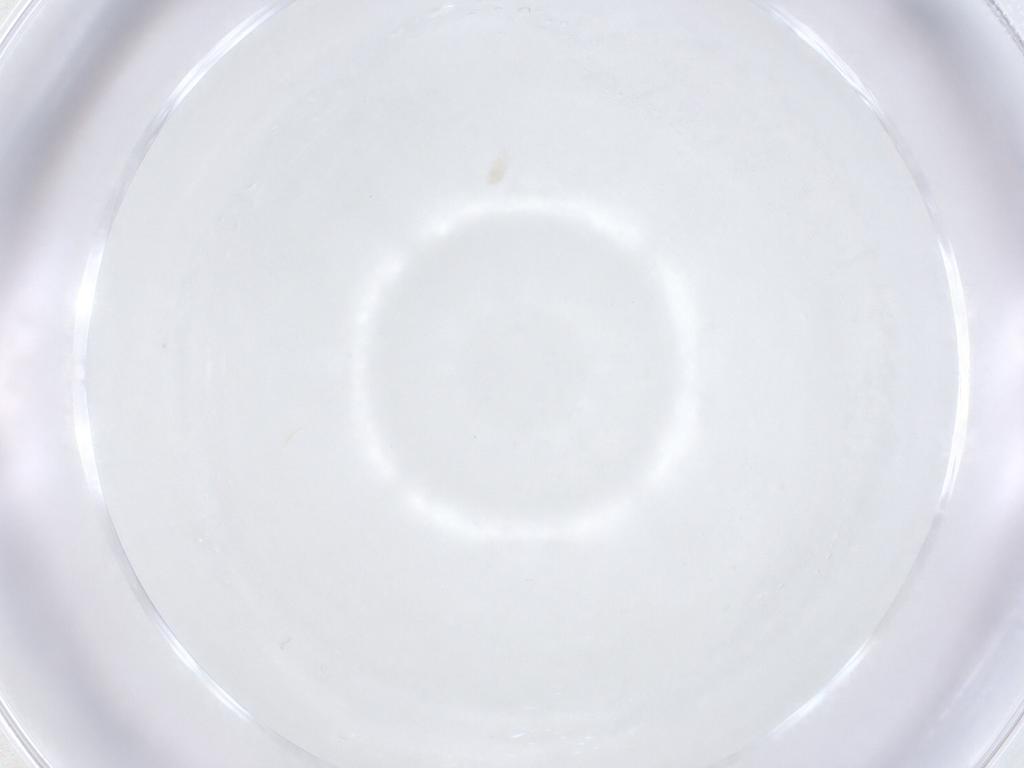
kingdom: Animalia
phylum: Arthropoda
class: Arachnida
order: Trombidiformes
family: Eupodidae
